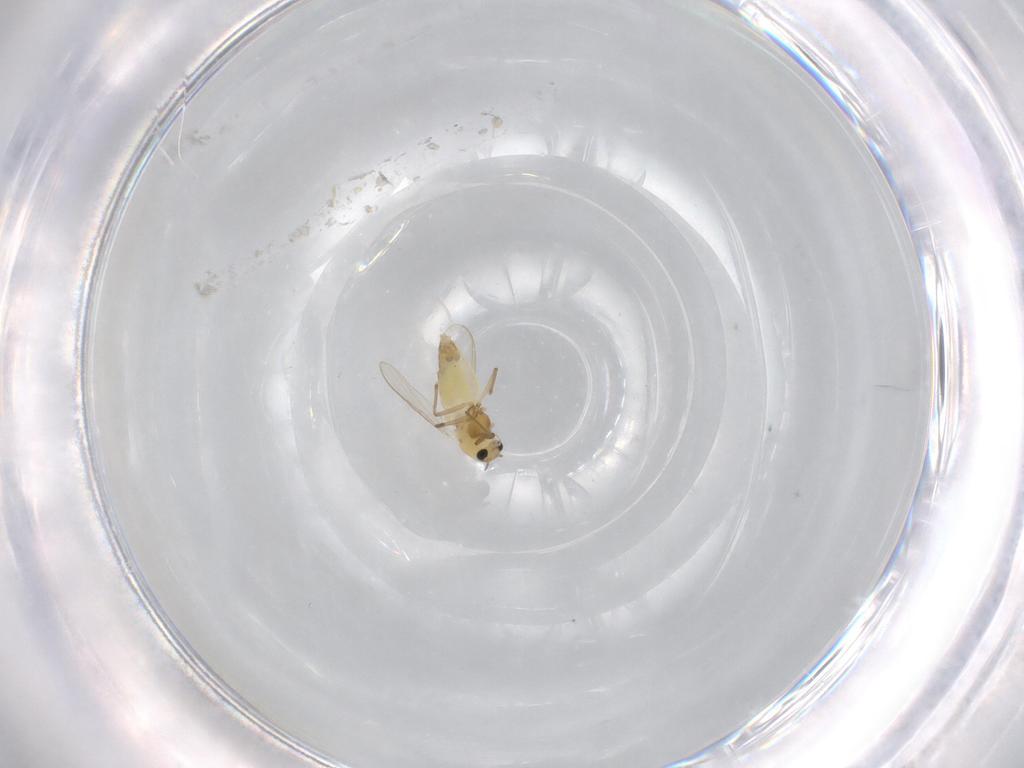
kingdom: Animalia
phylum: Arthropoda
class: Insecta
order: Diptera
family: Chironomidae
